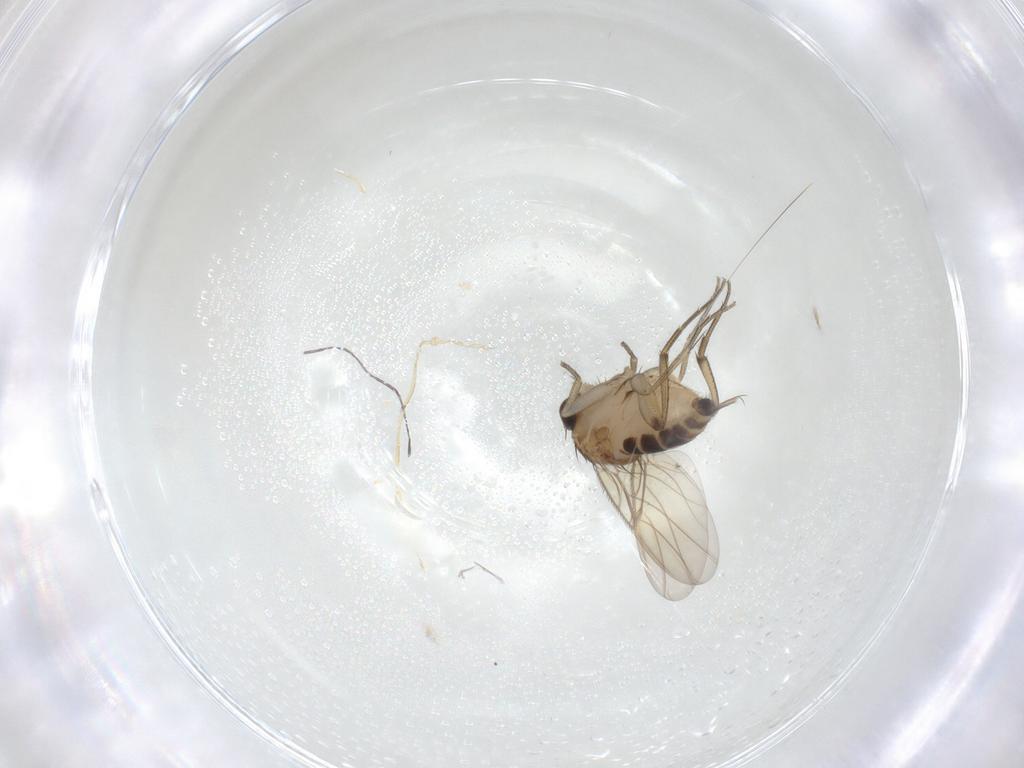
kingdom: Animalia
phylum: Arthropoda
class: Insecta
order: Diptera
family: Phoridae
